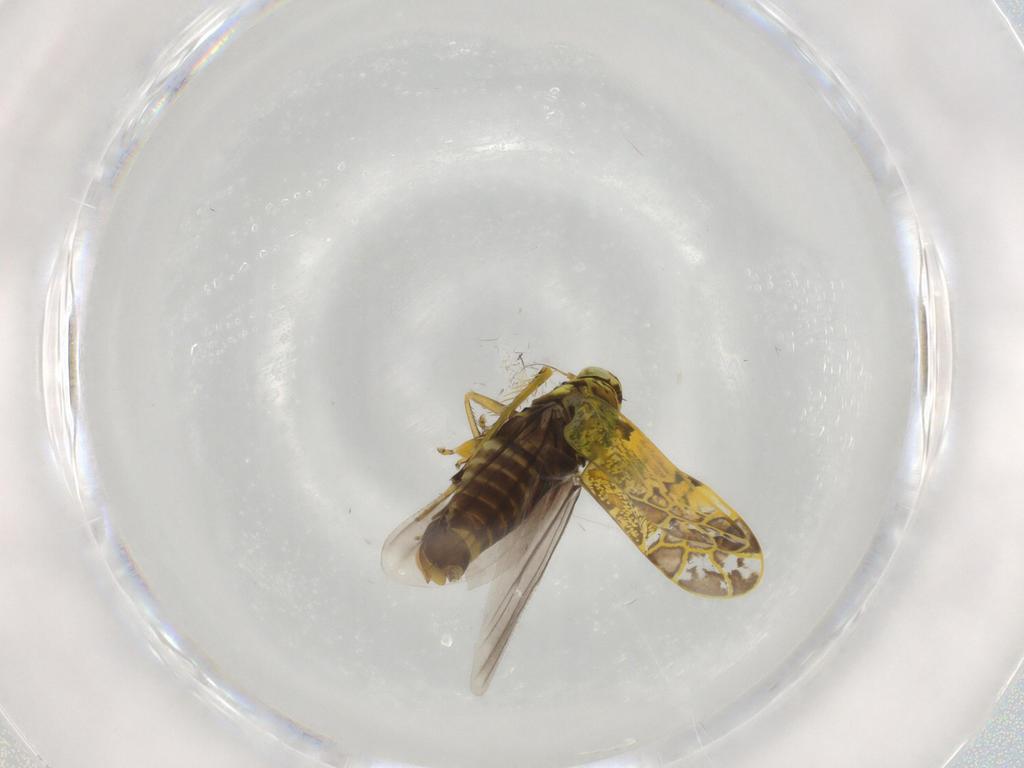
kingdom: Animalia
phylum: Arthropoda
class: Insecta
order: Hemiptera
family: Cicadellidae
